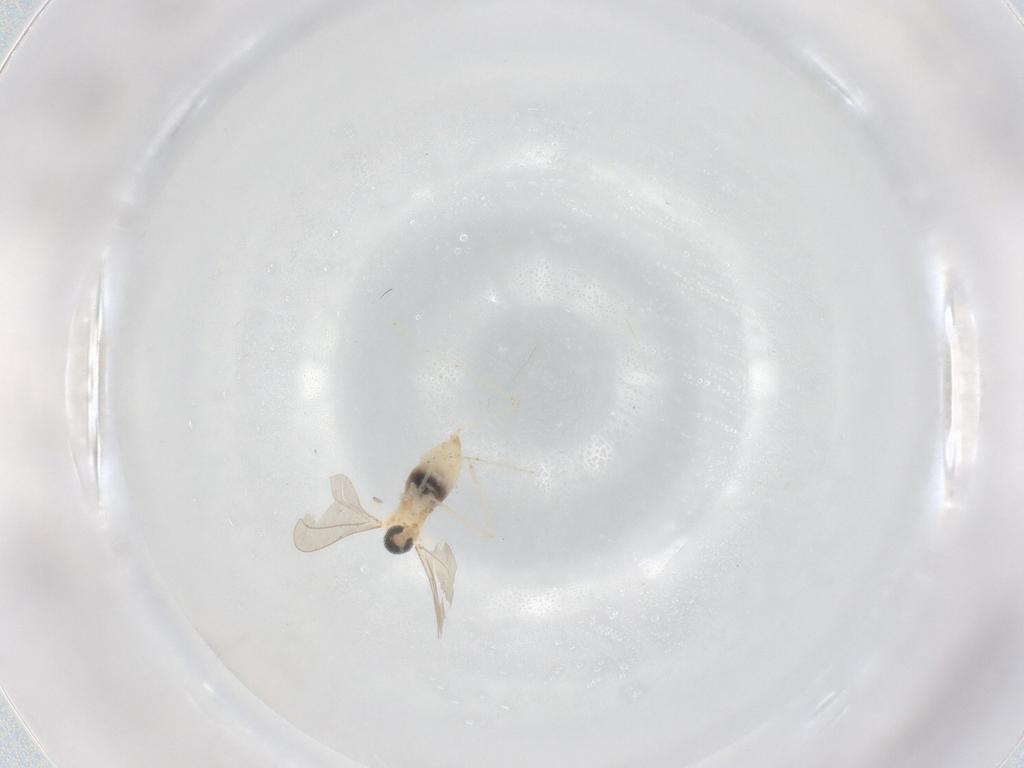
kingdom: Animalia
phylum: Arthropoda
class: Insecta
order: Diptera
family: Cecidomyiidae
